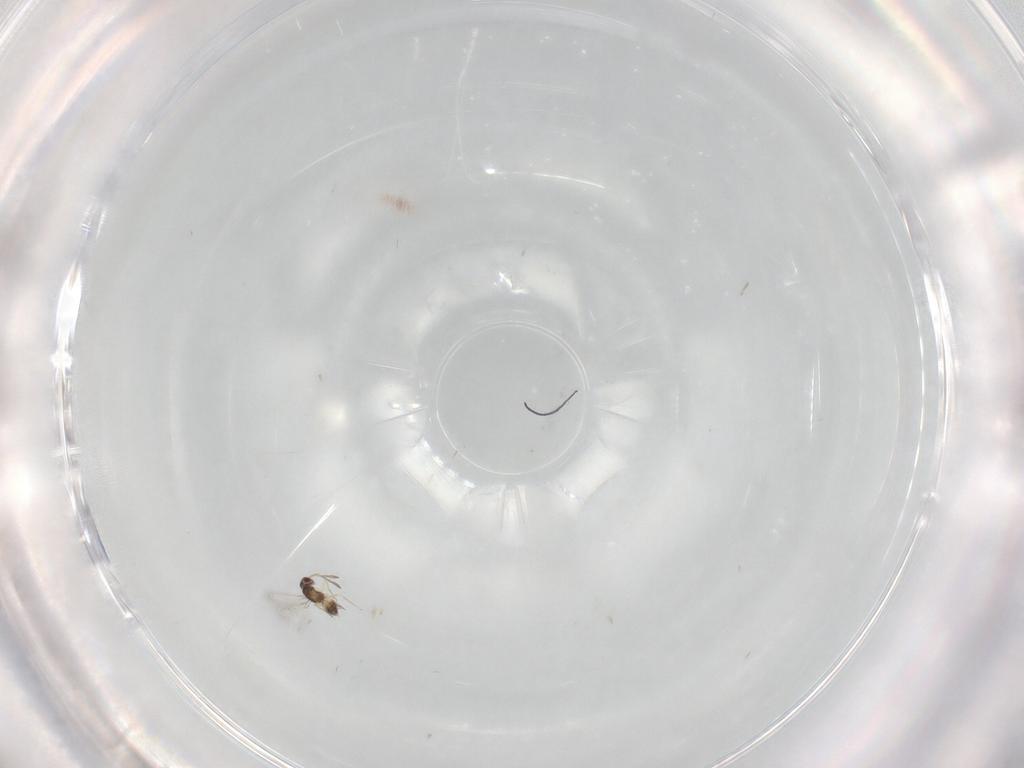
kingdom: Animalia
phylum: Arthropoda
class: Insecta
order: Hymenoptera
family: Mymaridae
